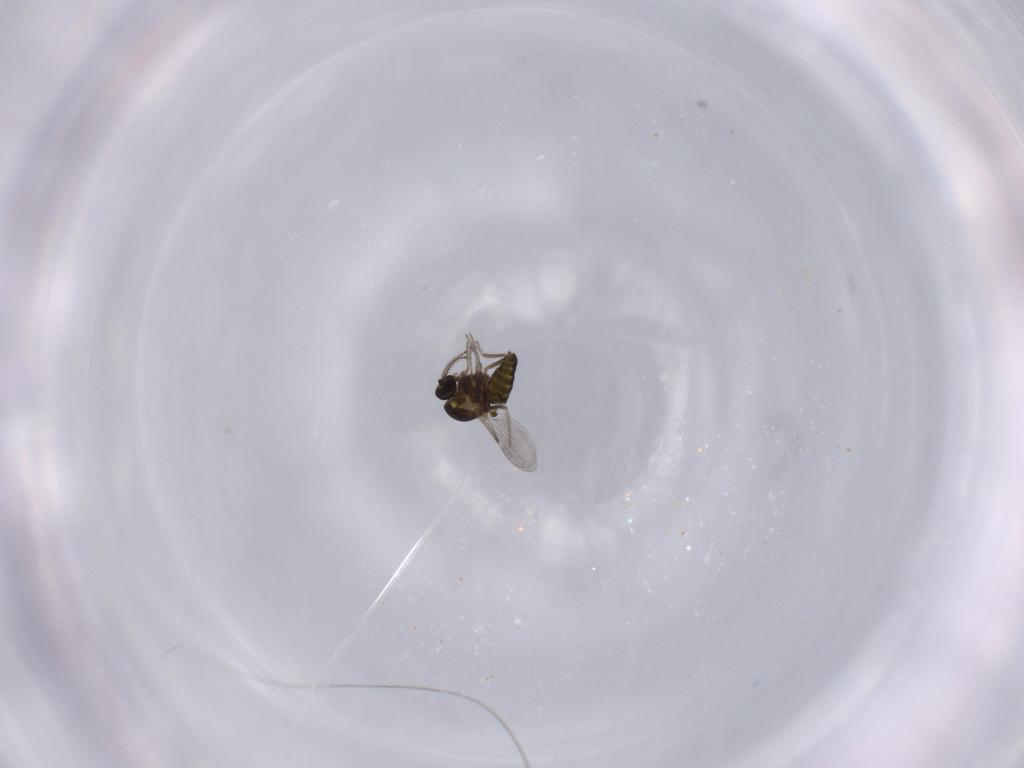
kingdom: Animalia
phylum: Arthropoda
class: Insecta
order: Diptera
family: Ceratopogonidae
